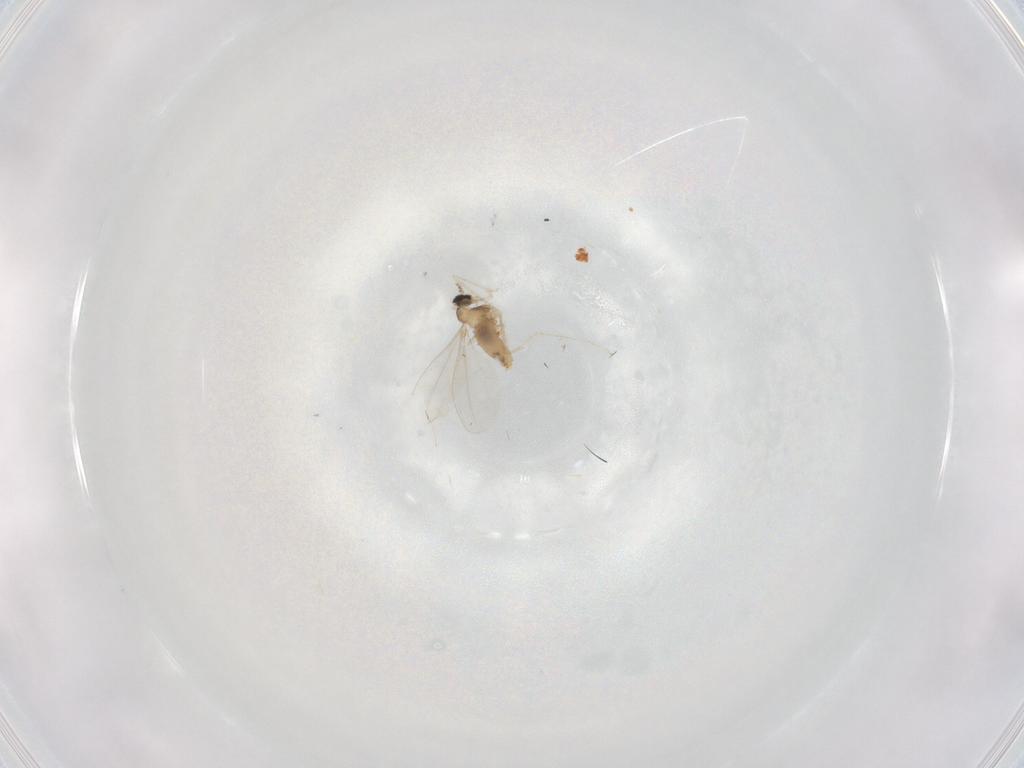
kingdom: Animalia
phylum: Arthropoda
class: Insecta
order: Diptera
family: Cecidomyiidae
